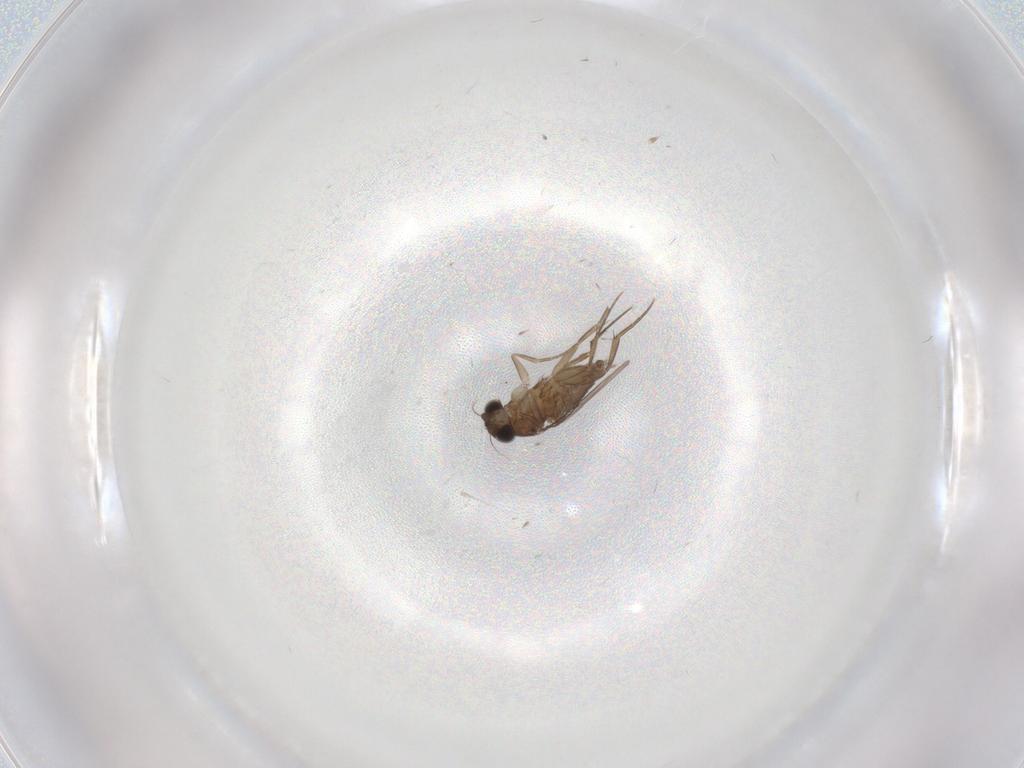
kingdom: Animalia
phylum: Arthropoda
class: Insecta
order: Diptera
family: Phoridae
